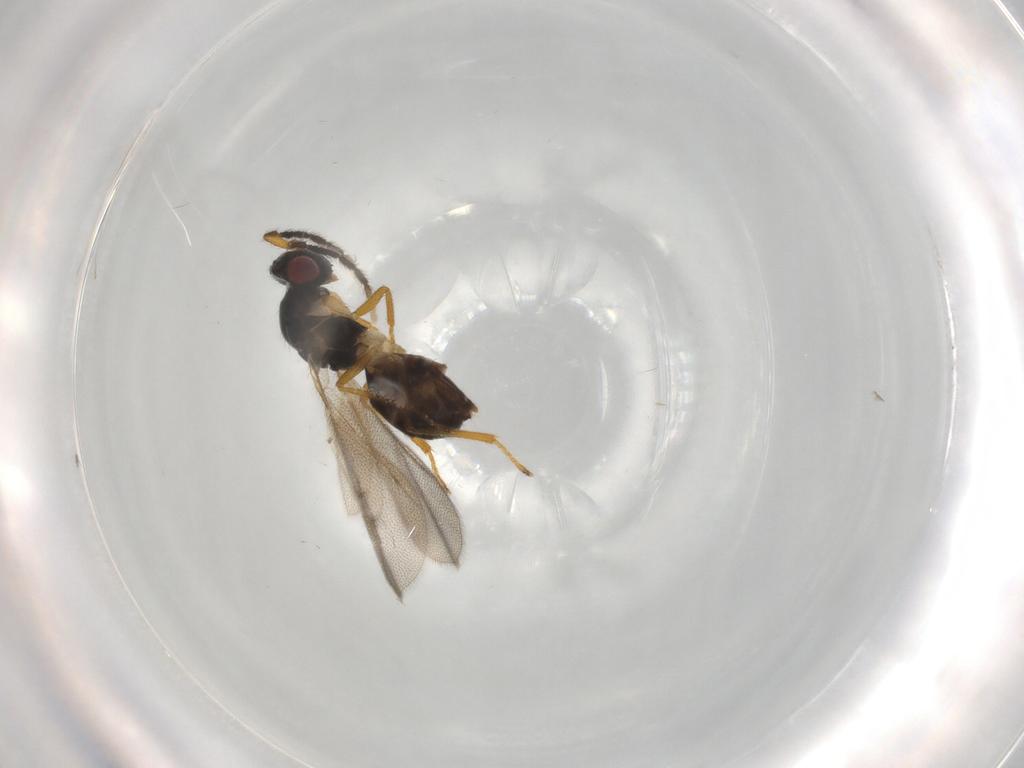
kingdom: Animalia
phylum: Arthropoda
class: Insecta
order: Hymenoptera
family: Eulophidae
